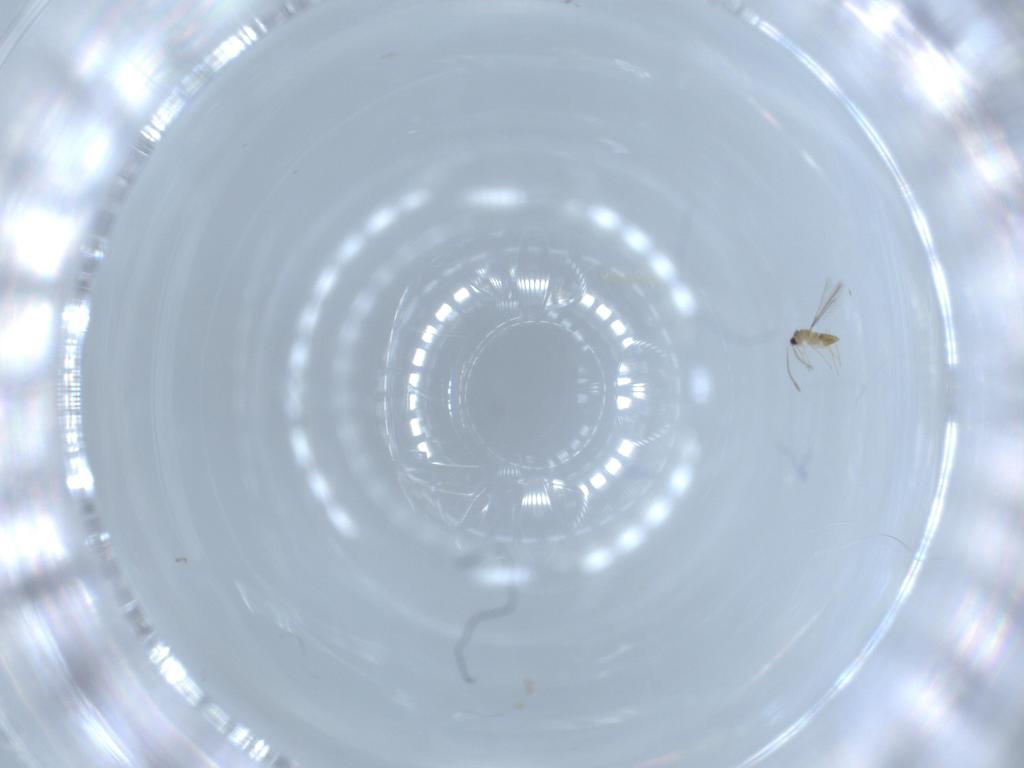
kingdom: Animalia
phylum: Arthropoda
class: Insecta
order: Hymenoptera
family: Mymaridae
